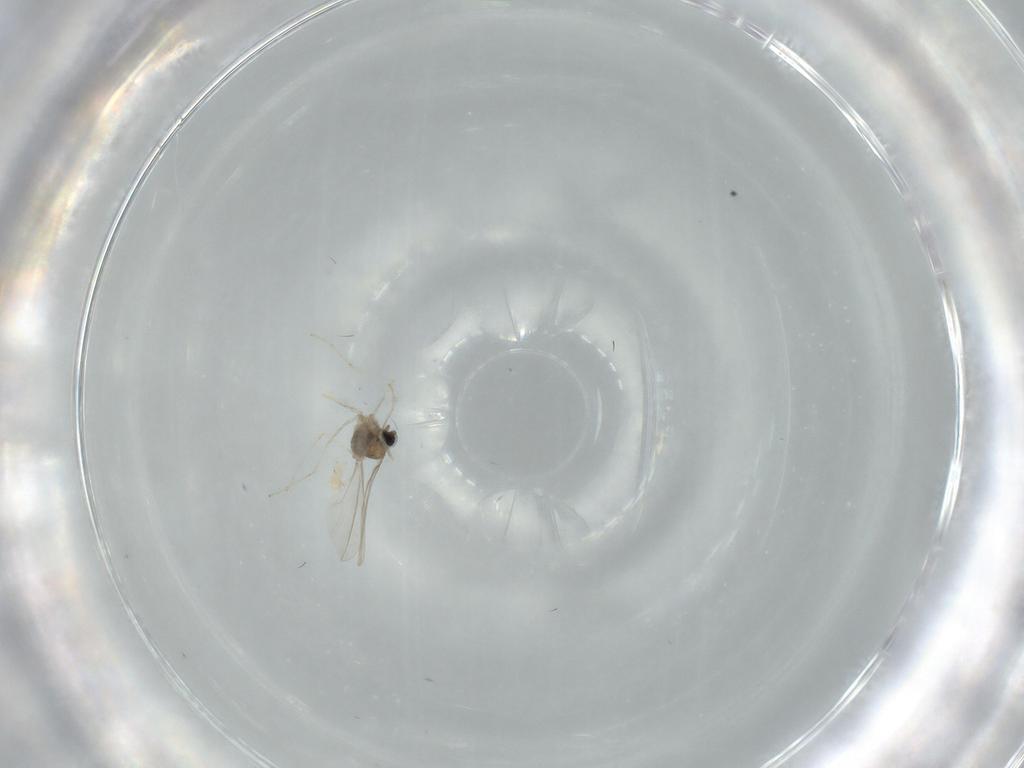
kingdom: Animalia
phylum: Arthropoda
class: Insecta
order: Diptera
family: Cecidomyiidae
